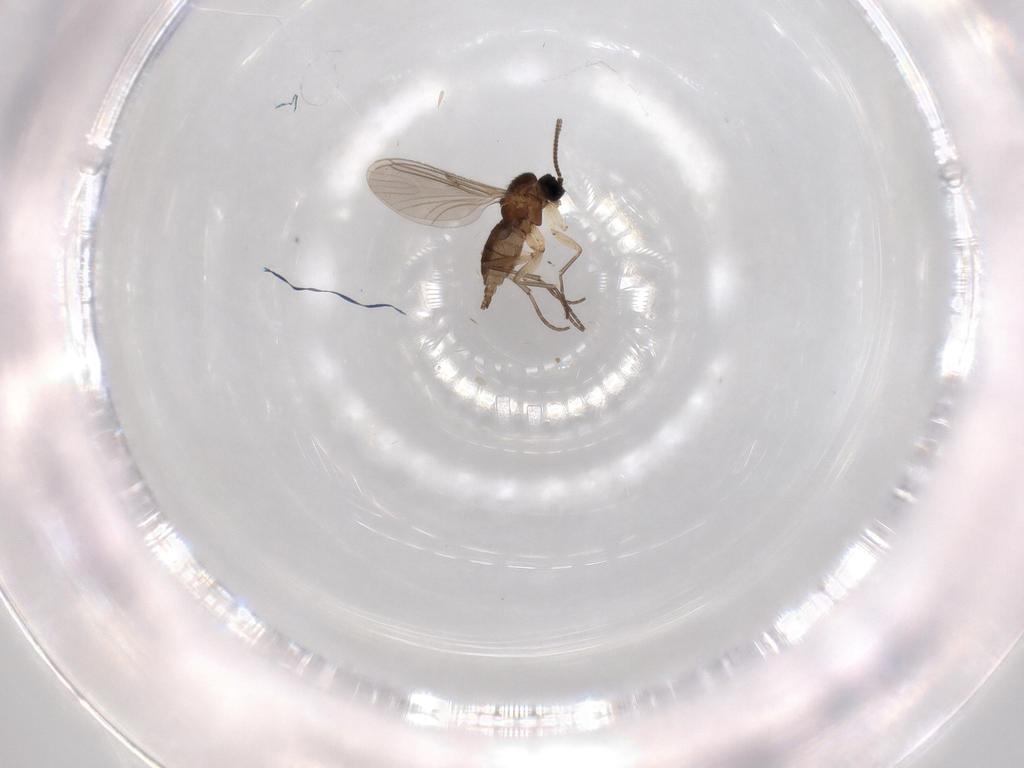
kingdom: Animalia
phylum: Arthropoda
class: Insecta
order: Diptera
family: Sciaridae
